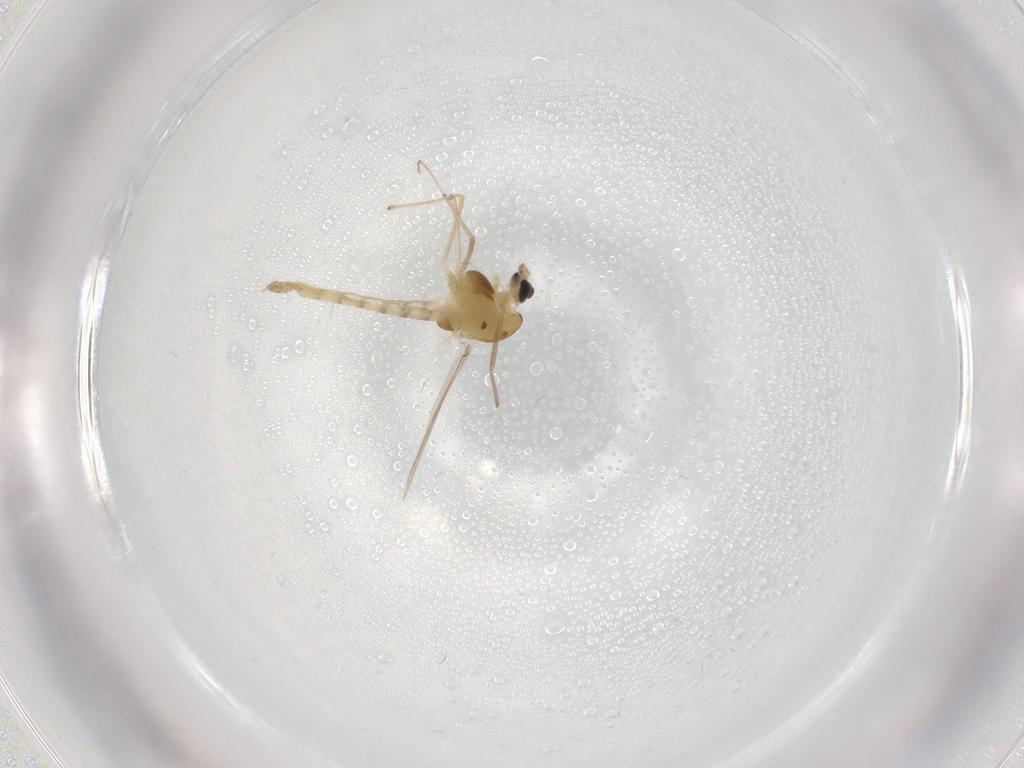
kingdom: Animalia
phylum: Arthropoda
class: Insecta
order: Diptera
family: Chironomidae
